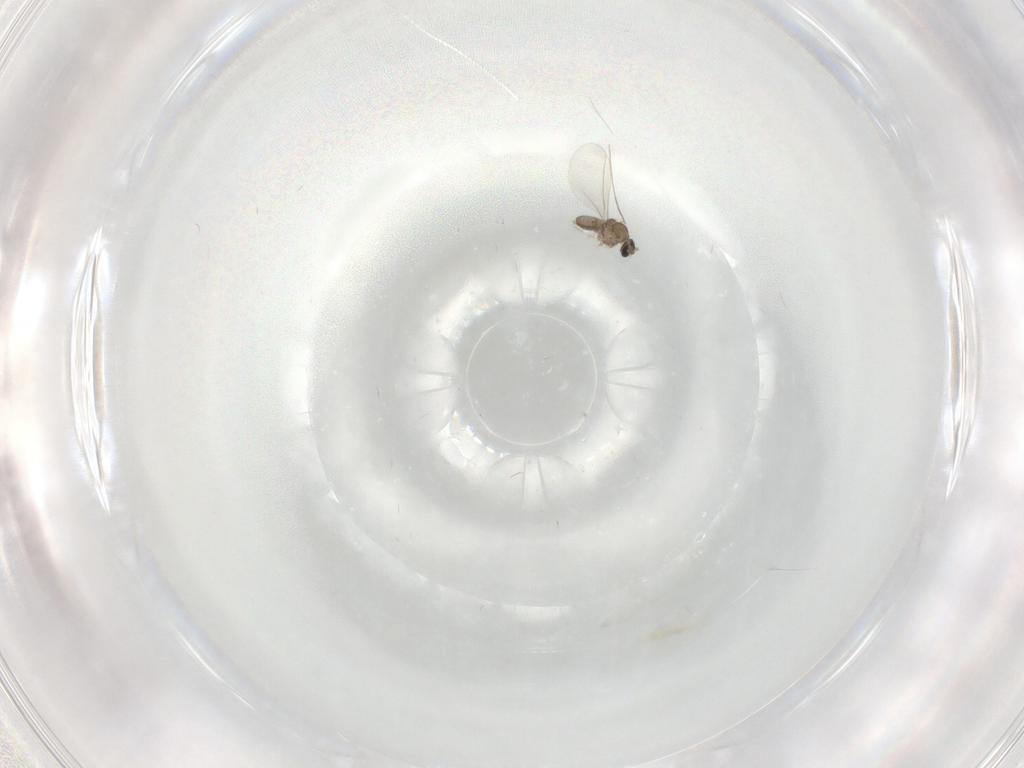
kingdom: Animalia
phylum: Arthropoda
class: Insecta
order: Diptera
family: Cecidomyiidae
